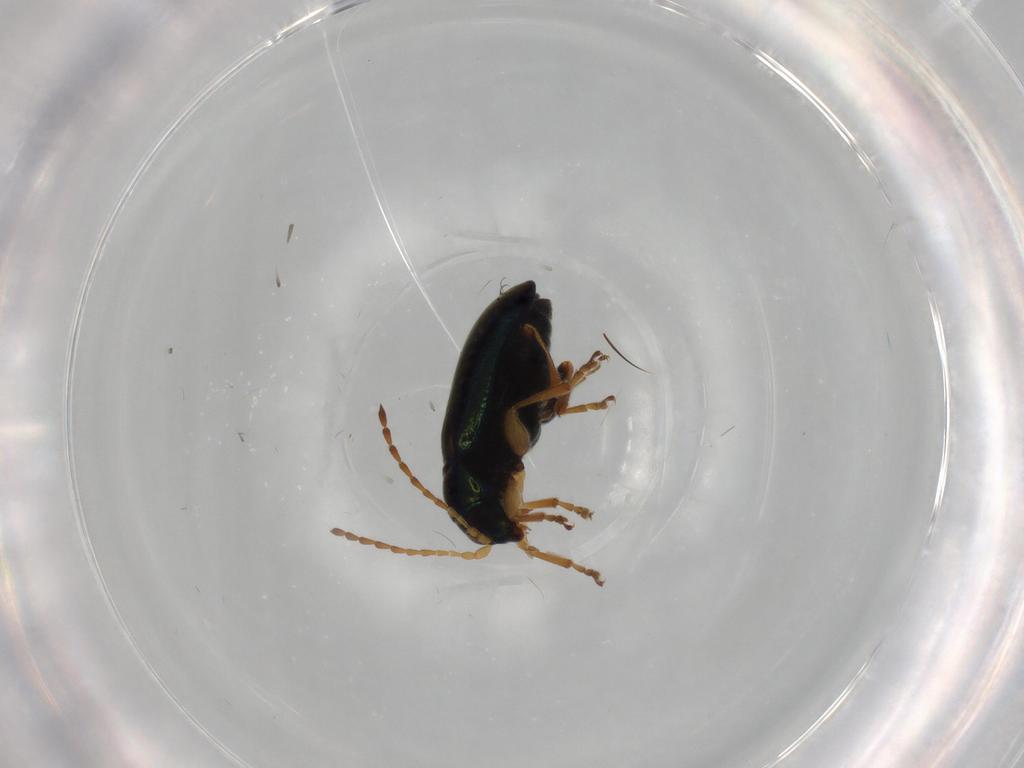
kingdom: Animalia
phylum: Arthropoda
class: Insecta
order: Coleoptera
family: Chrysomelidae
